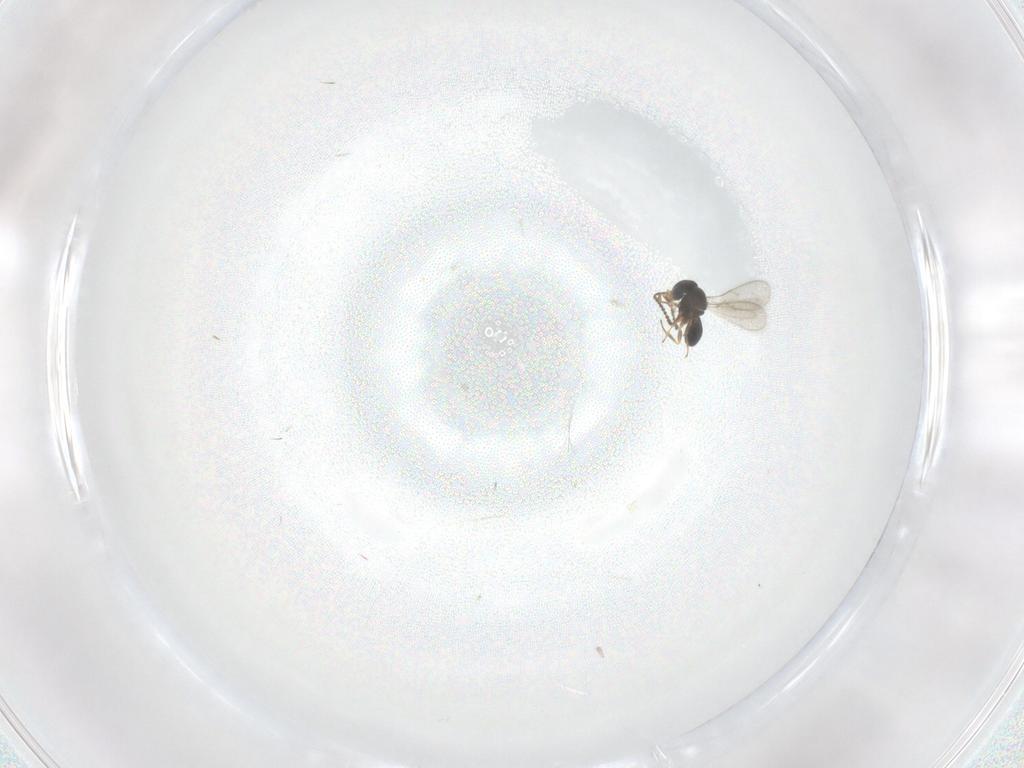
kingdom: Animalia
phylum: Arthropoda
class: Insecta
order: Hymenoptera
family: Scelionidae
